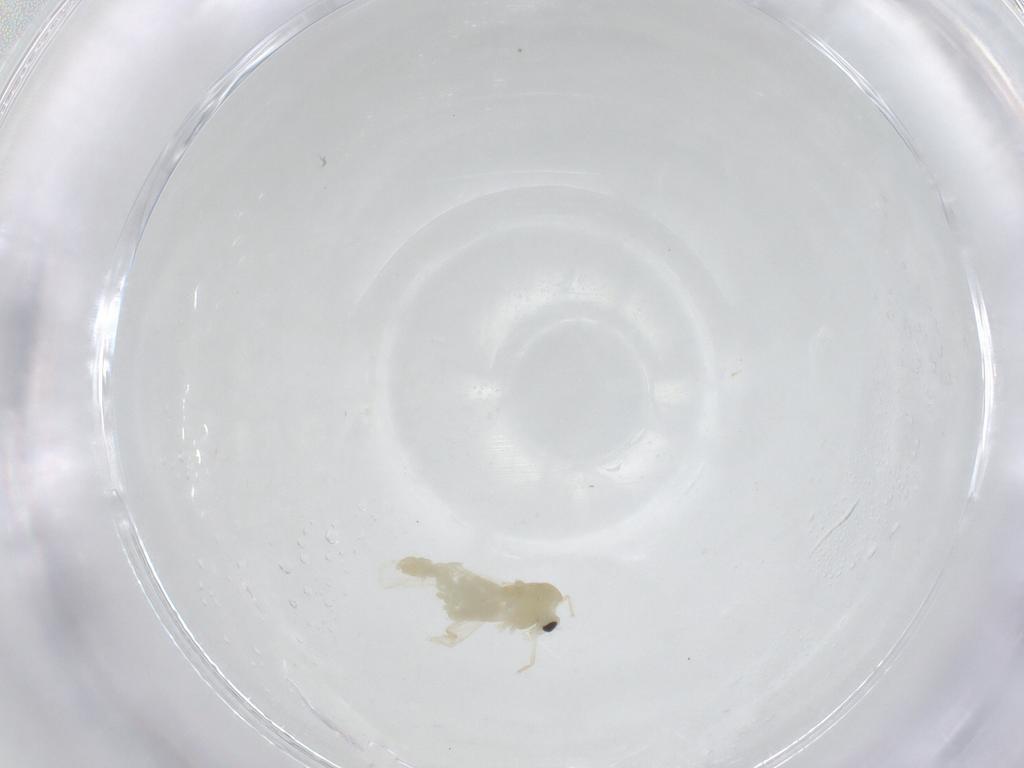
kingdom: Animalia
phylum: Arthropoda
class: Insecta
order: Diptera
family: Chironomidae
